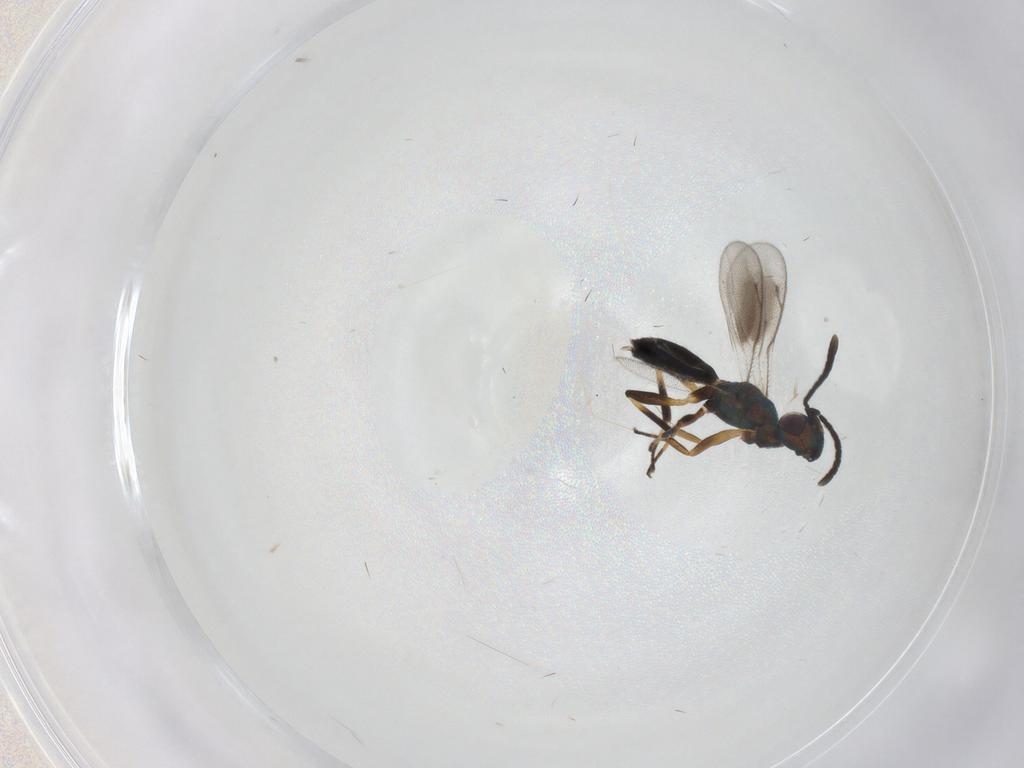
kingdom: Animalia
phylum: Arthropoda
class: Insecta
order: Hymenoptera
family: Eupelmidae
